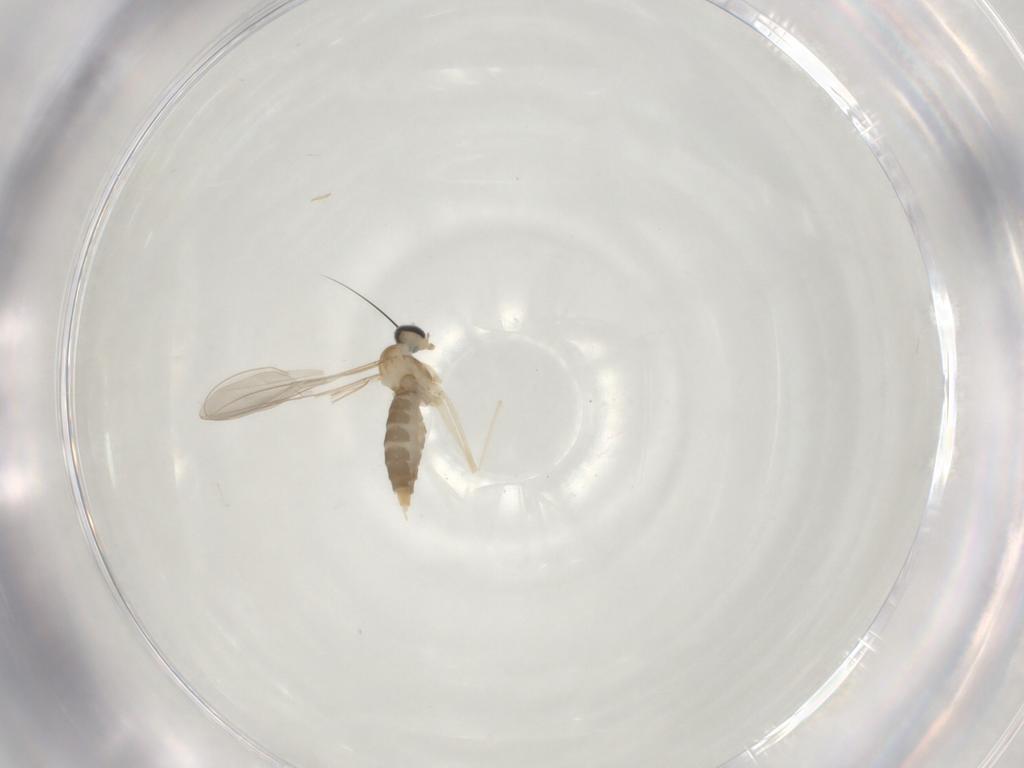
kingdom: Animalia
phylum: Arthropoda
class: Insecta
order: Diptera
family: Cecidomyiidae
